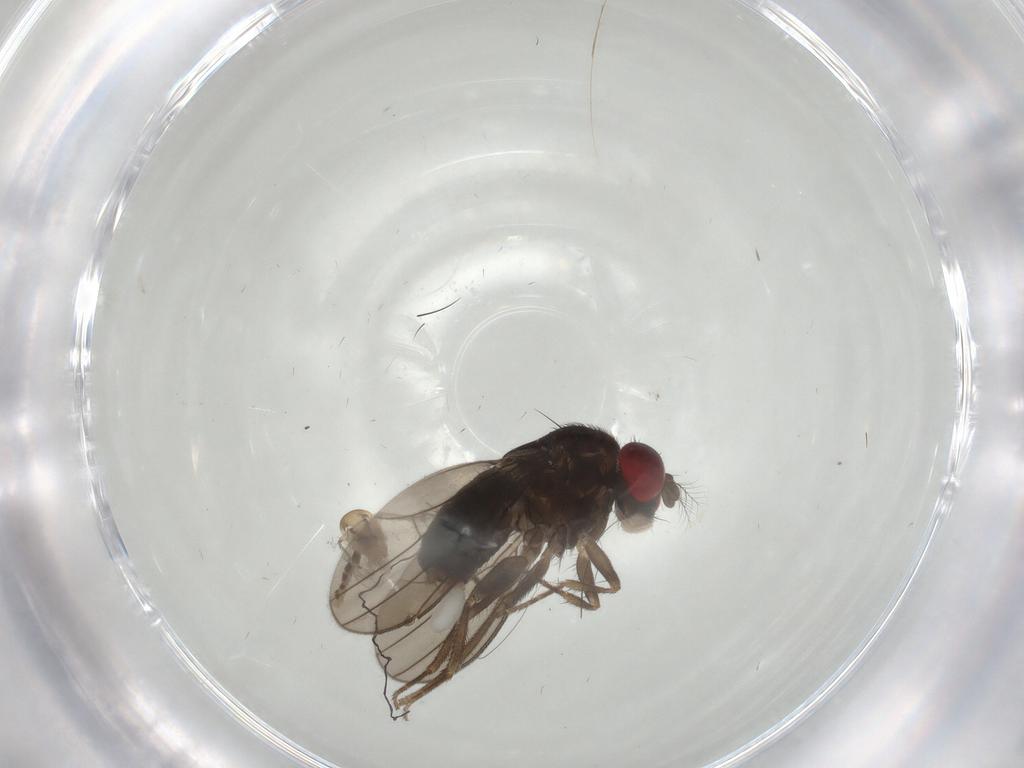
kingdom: Animalia
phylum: Arthropoda
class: Insecta
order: Diptera
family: Drosophilidae
